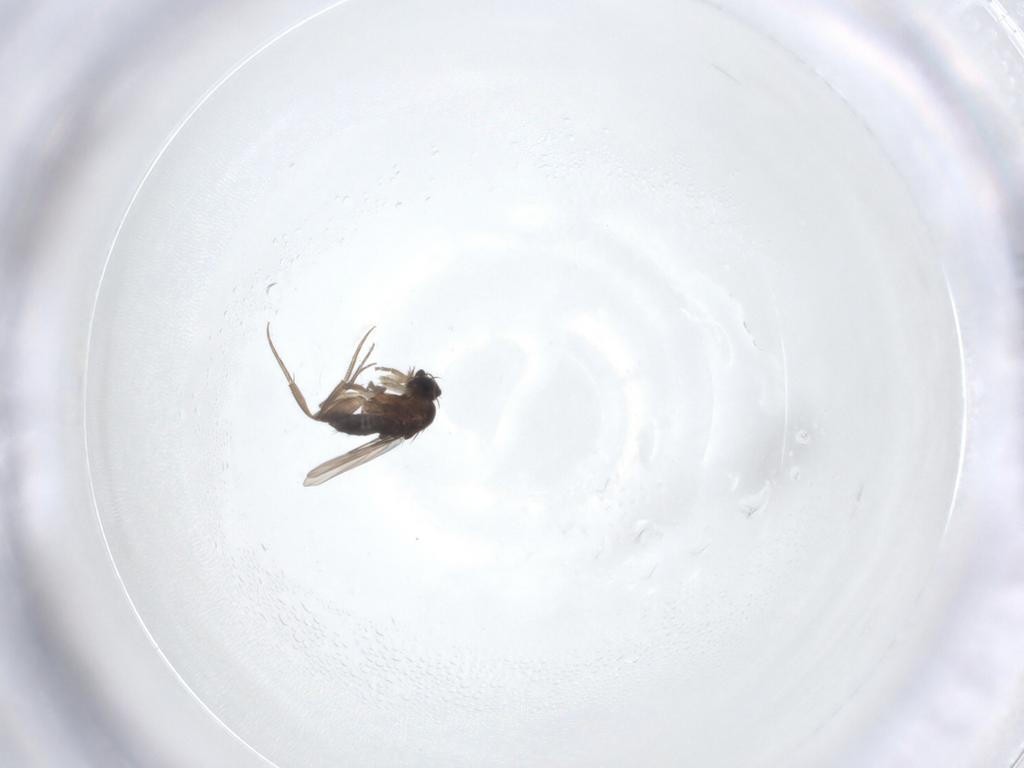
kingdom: Animalia
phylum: Arthropoda
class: Insecta
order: Diptera
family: Phoridae
